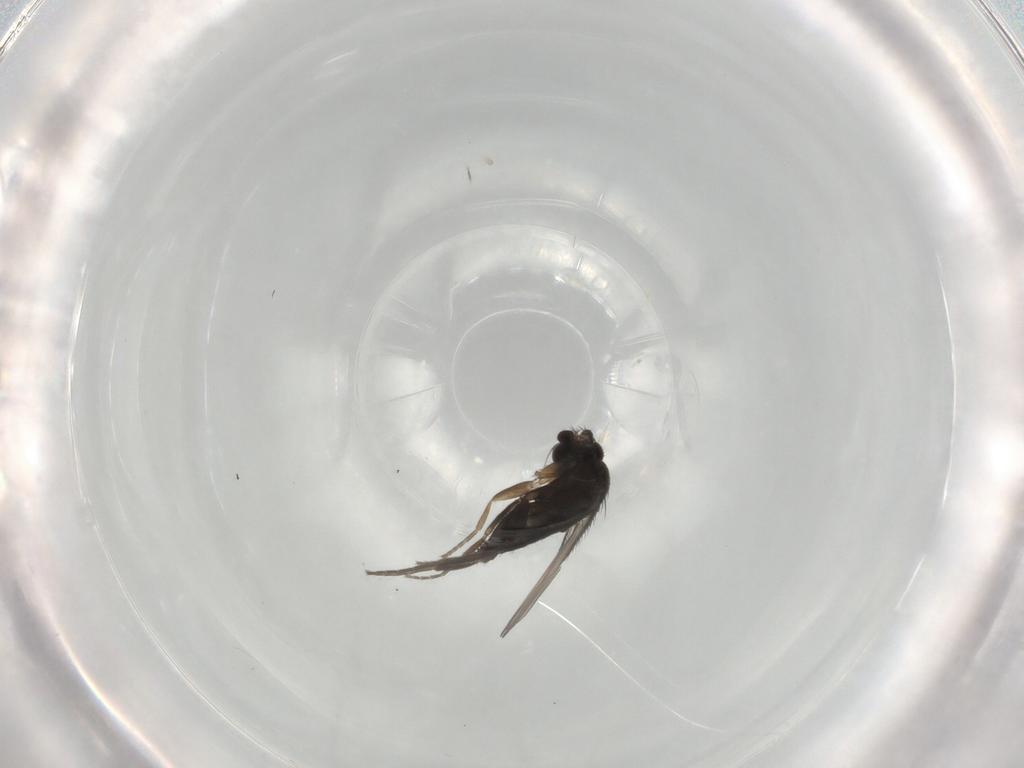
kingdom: Animalia
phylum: Arthropoda
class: Insecta
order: Diptera
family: Phoridae
